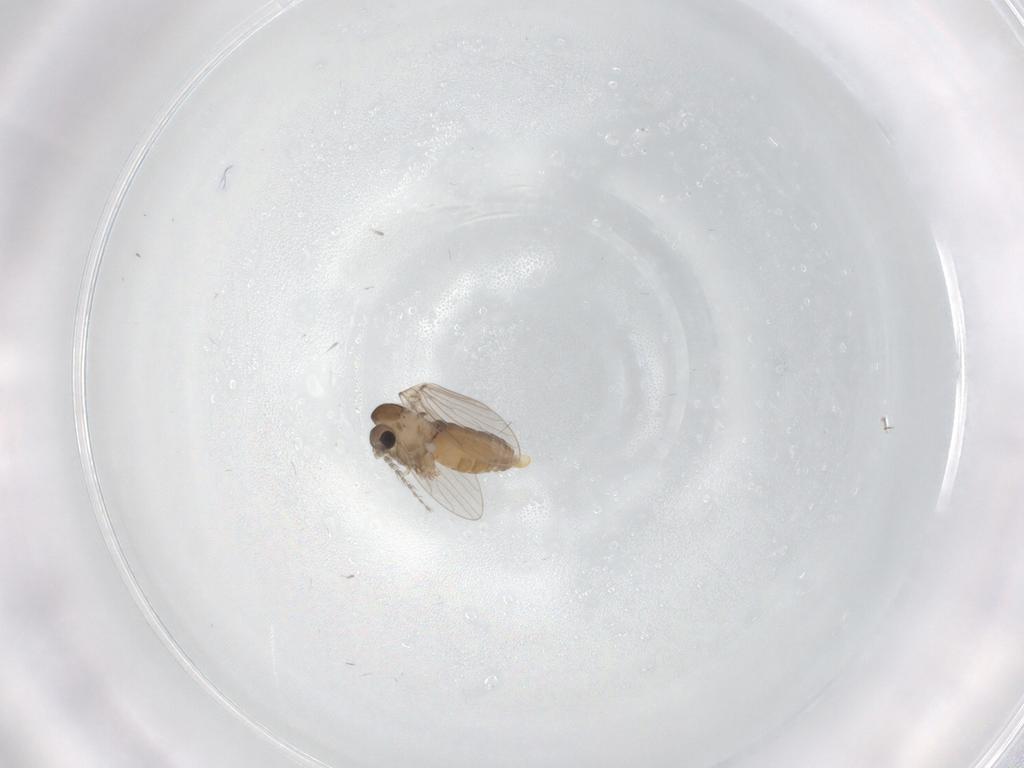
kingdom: Animalia
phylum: Arthropoda
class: Insecta
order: Diptera
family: Psychodidae
